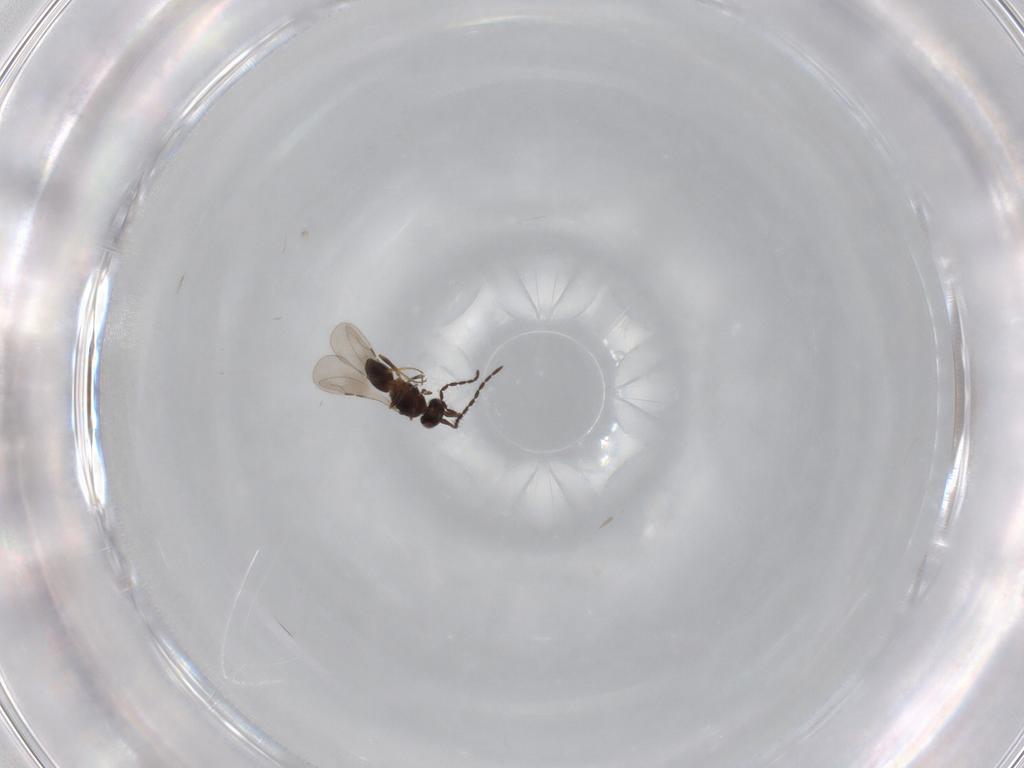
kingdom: Animalia
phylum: Arthropoda
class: Insecta
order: Hymenoptera
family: Ceraphronidae
